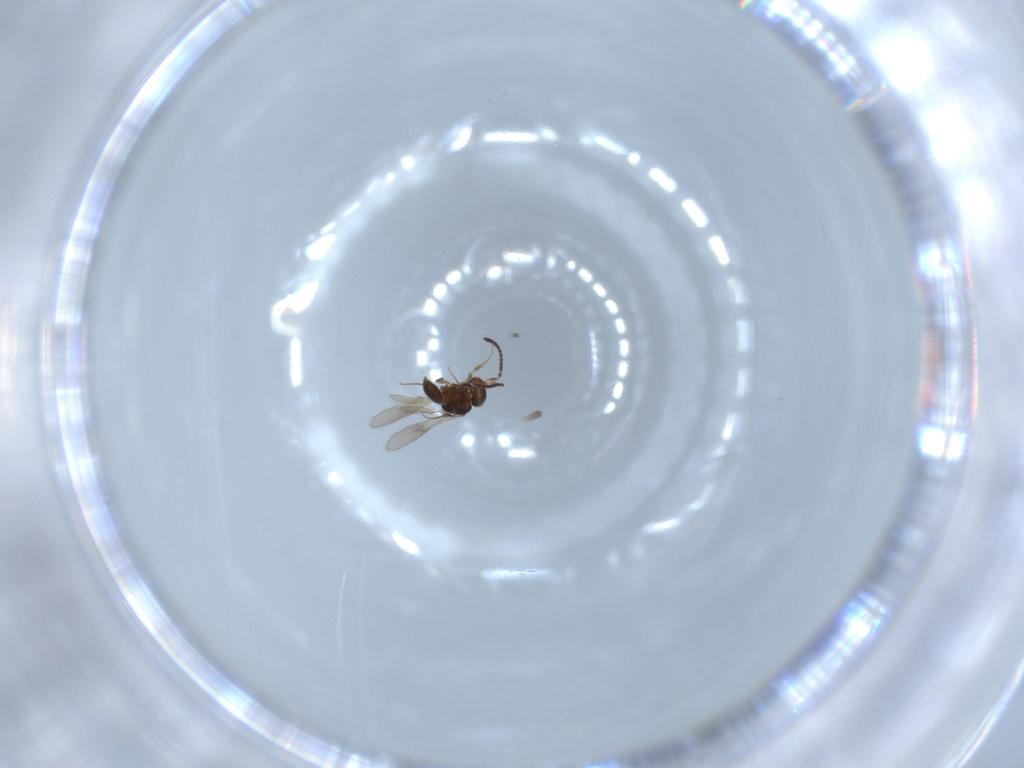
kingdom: Animalia
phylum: Arthropoda
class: Insecta
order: Hymenoptera
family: Scelionidae
